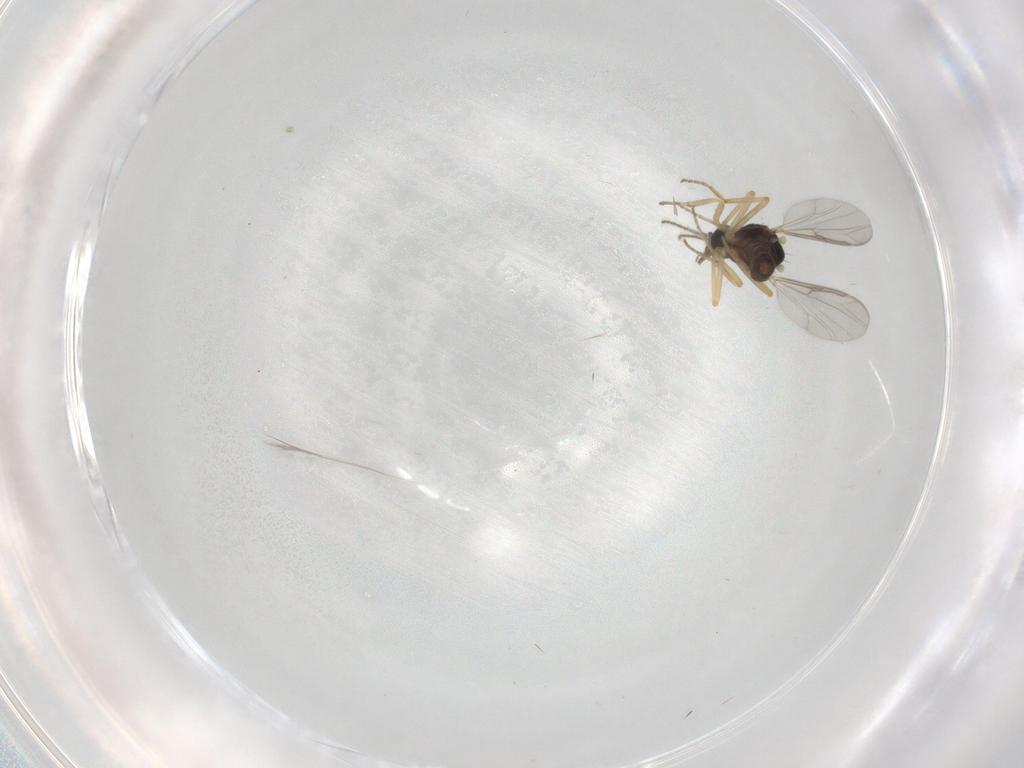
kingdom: Animalia
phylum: Arthropoda
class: Insecta
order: Diptera
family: Ceratopogonidae
